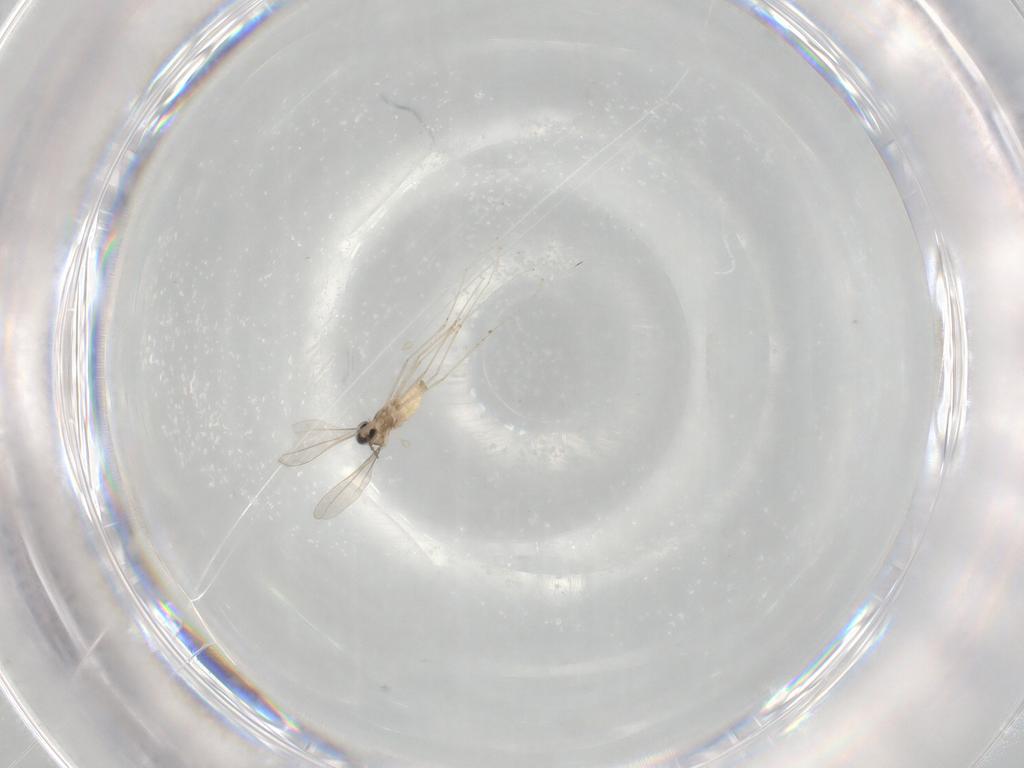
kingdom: Animalia
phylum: Arthropoda
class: Insecta
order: Diptera
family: Cecidomyiidae
